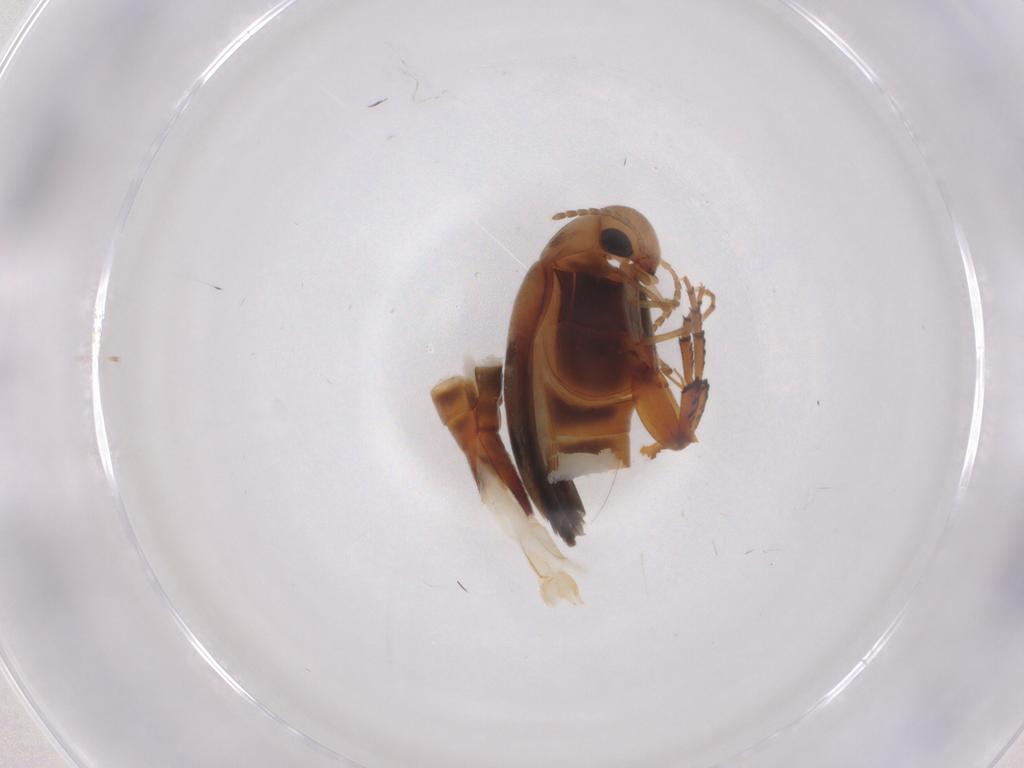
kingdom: Animalia
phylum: Arthropoda
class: Insecta
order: Coleoptera
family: Mordellidae
